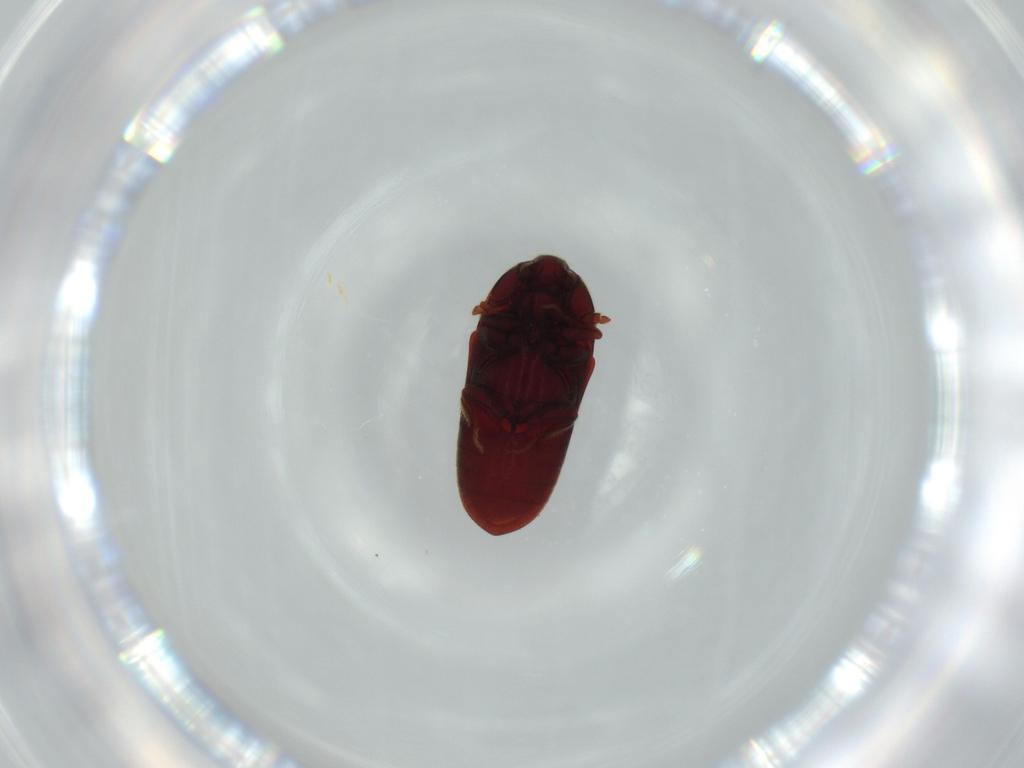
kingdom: Animalia
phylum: Arthropoda
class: Insecta
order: Coleoptera
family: Throscidae
